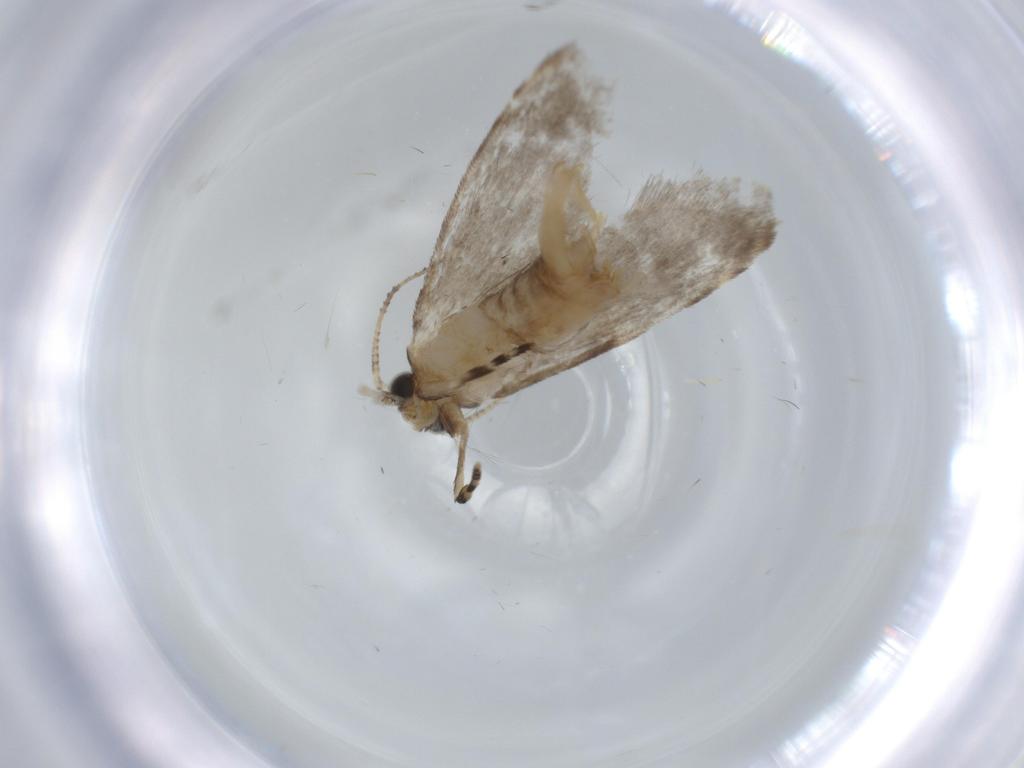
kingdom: Animalia
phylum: Arthropoda
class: Insecta
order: Lepidoptera
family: Tineidae
